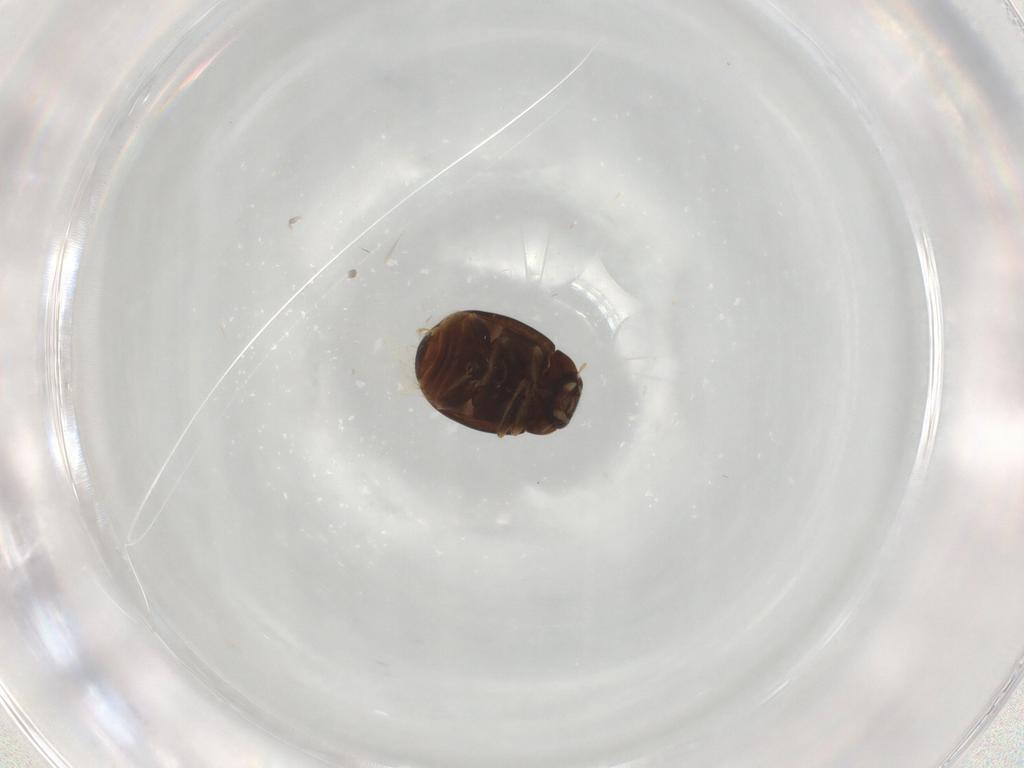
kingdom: Animalia
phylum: Arthropoda
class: Insecta
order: Coleoptera
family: Coccinellidae
